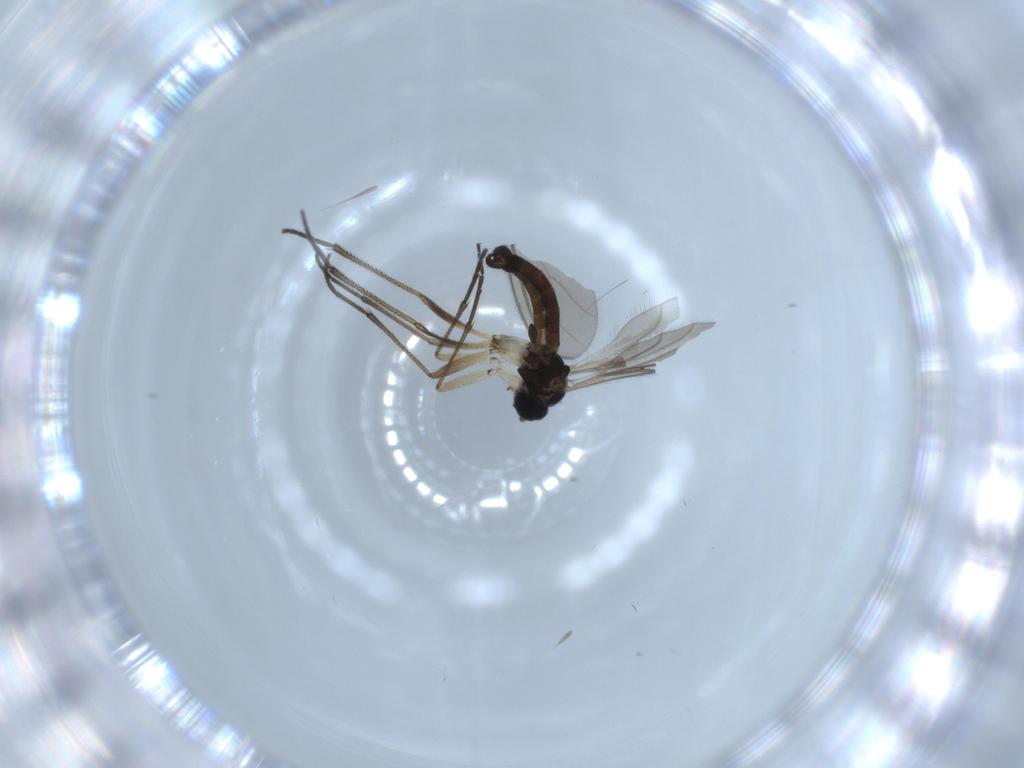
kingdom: Animalia
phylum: Arthropoda
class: Insecta
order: Diptera
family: Sciaridae
